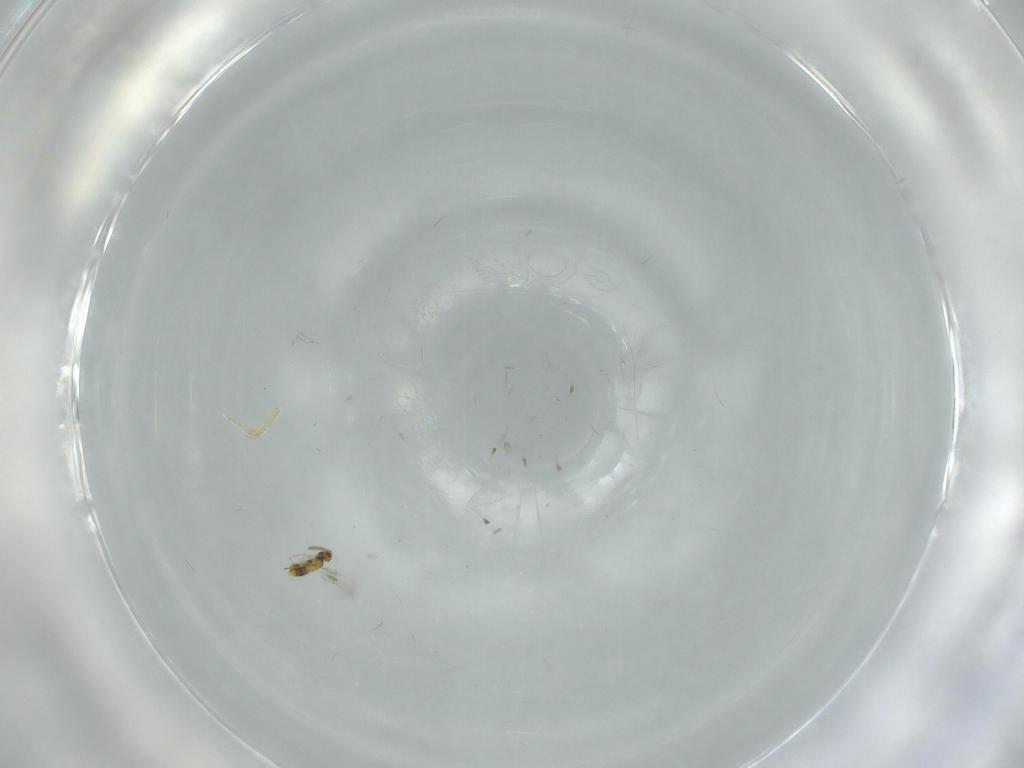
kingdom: Animalia
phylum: Arthropoda
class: Insecta
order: Hymenoptera
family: Aphelinidae
